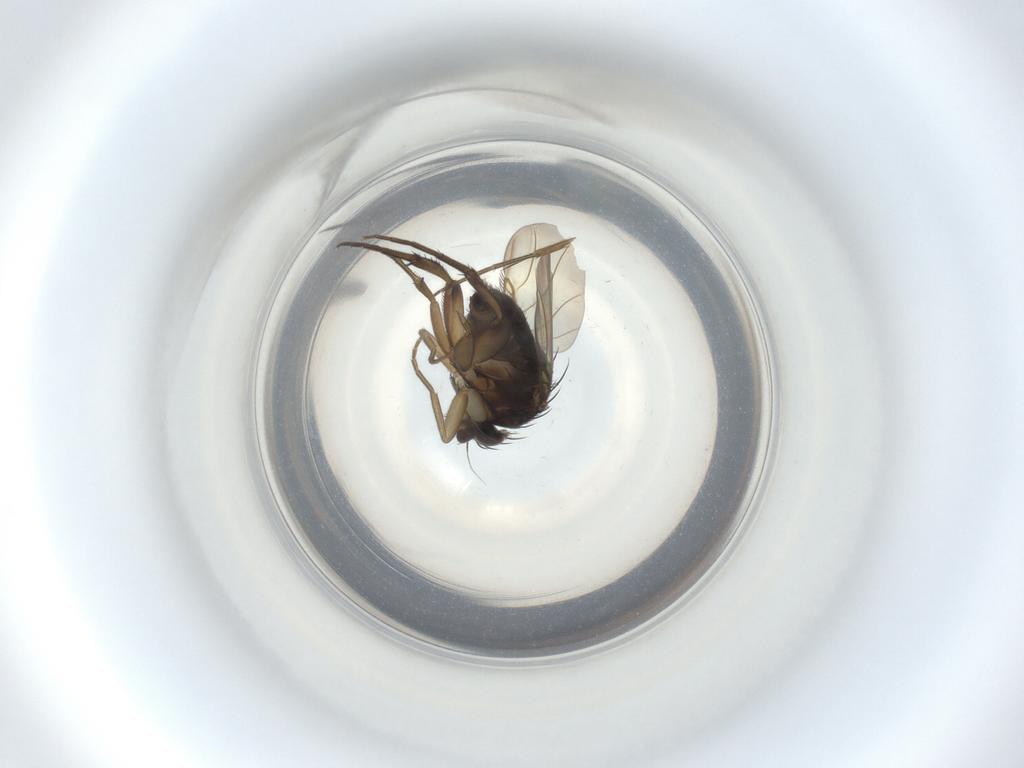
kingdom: Animalia
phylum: Arthropoda
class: Insecta
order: Diptera
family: Phoridae
